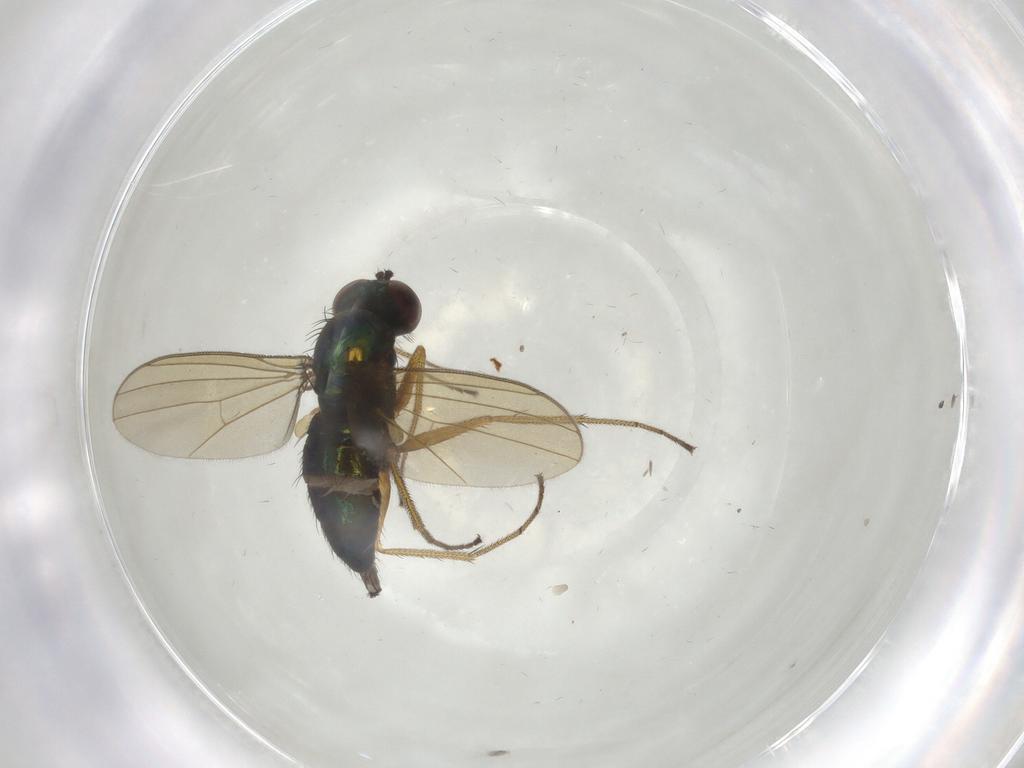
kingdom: Animalia
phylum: Arthropoda
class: Insecta
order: Diptera
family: Dolichopodidae
